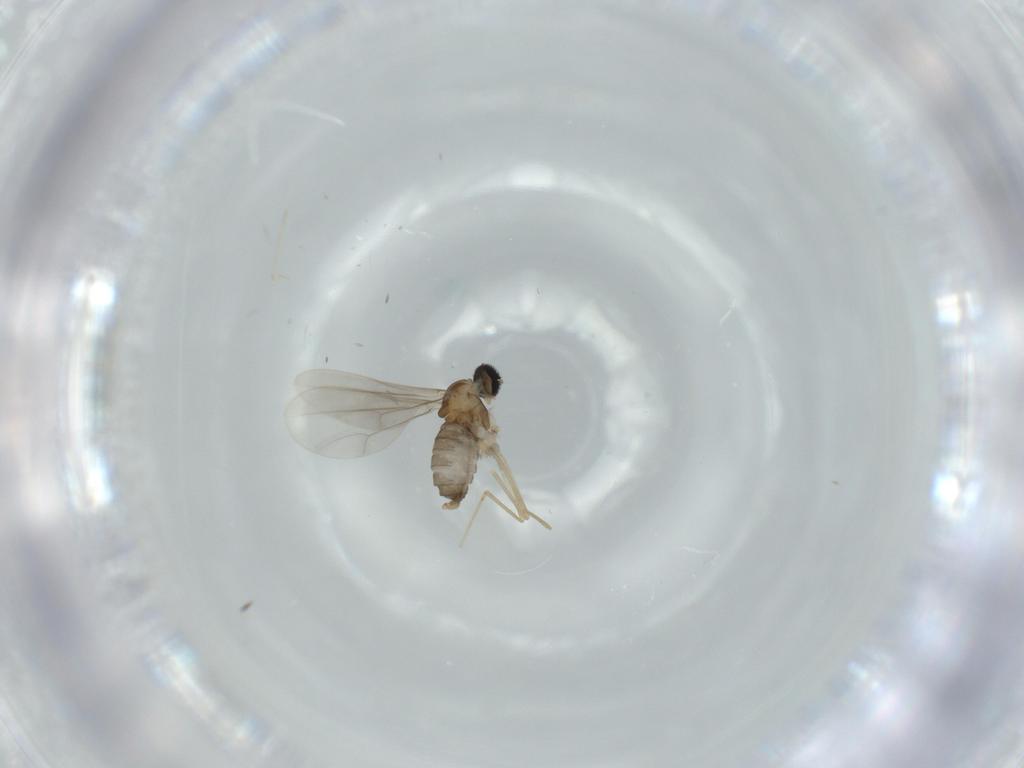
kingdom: Animalia
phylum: Arthropoda
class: Insecta
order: Diptera
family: Cecidomyiidae
